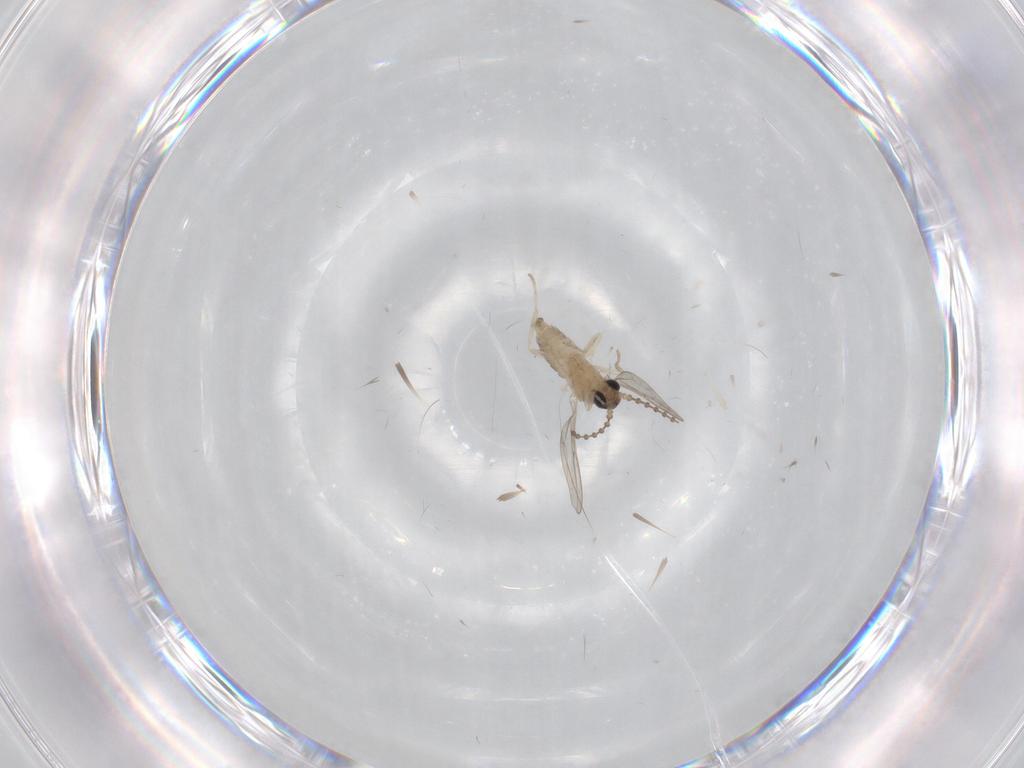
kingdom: Animalia
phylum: Arthropoda
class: Insecta
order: Diptera
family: Cecidomyiidae
